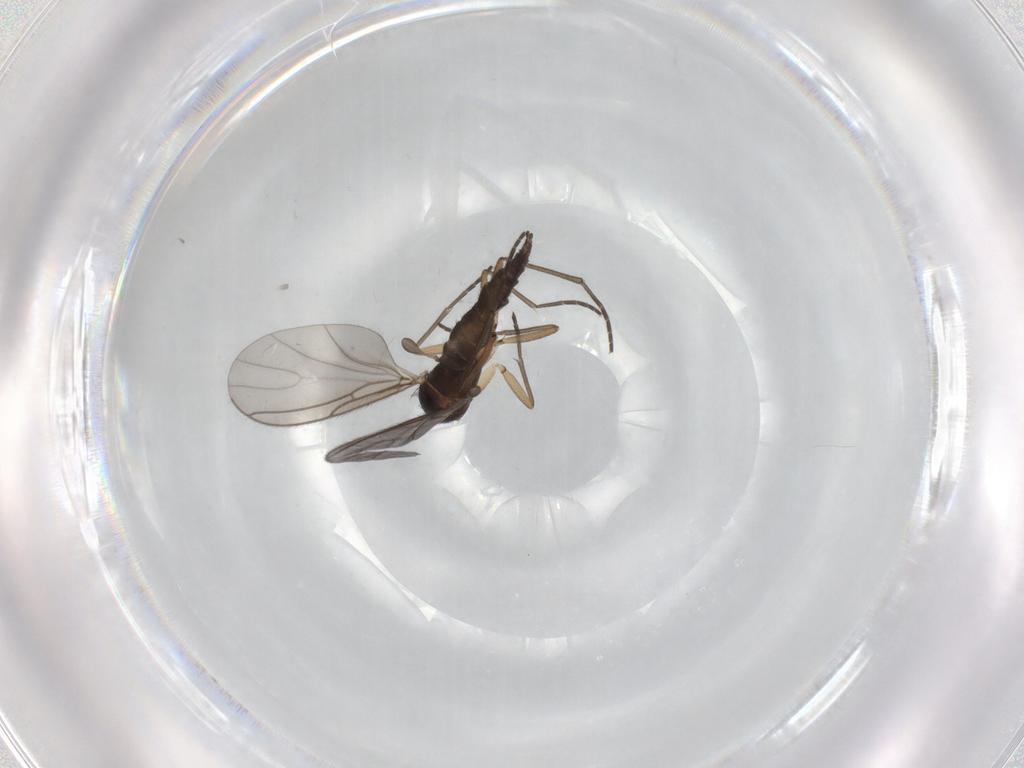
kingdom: Animalia
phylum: Arthropoda
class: Insecta
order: Diptera
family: Sciaridae
